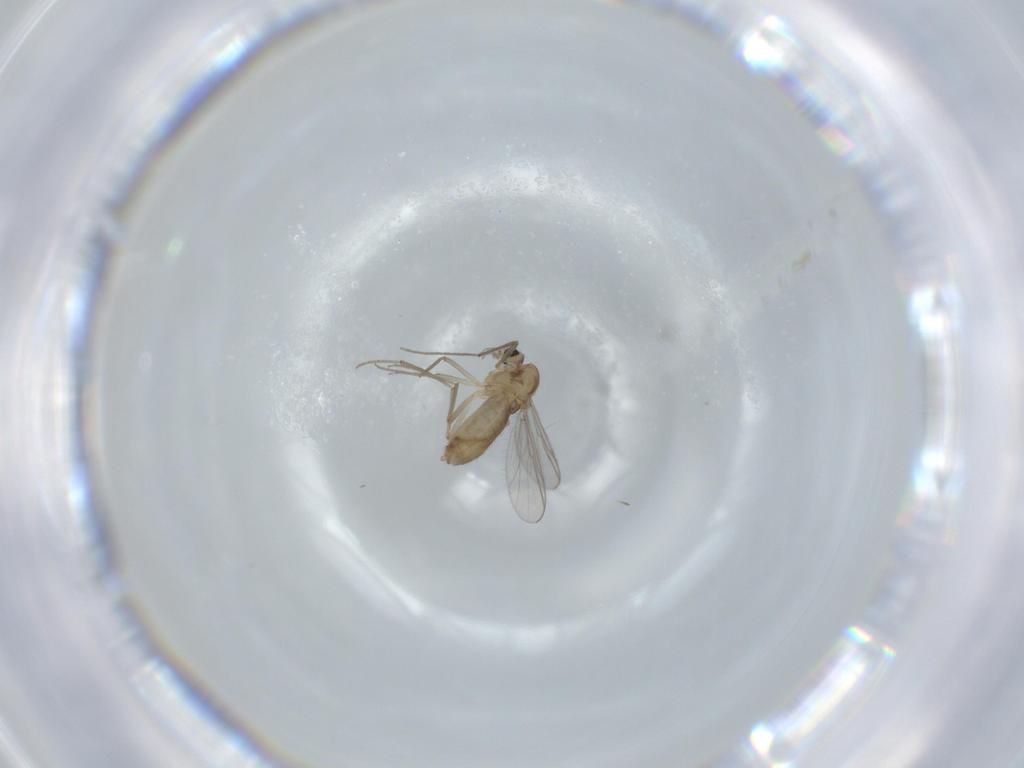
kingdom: Animalia
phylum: Arthropoda
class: Insecta
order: Diptera
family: Chironomidae
